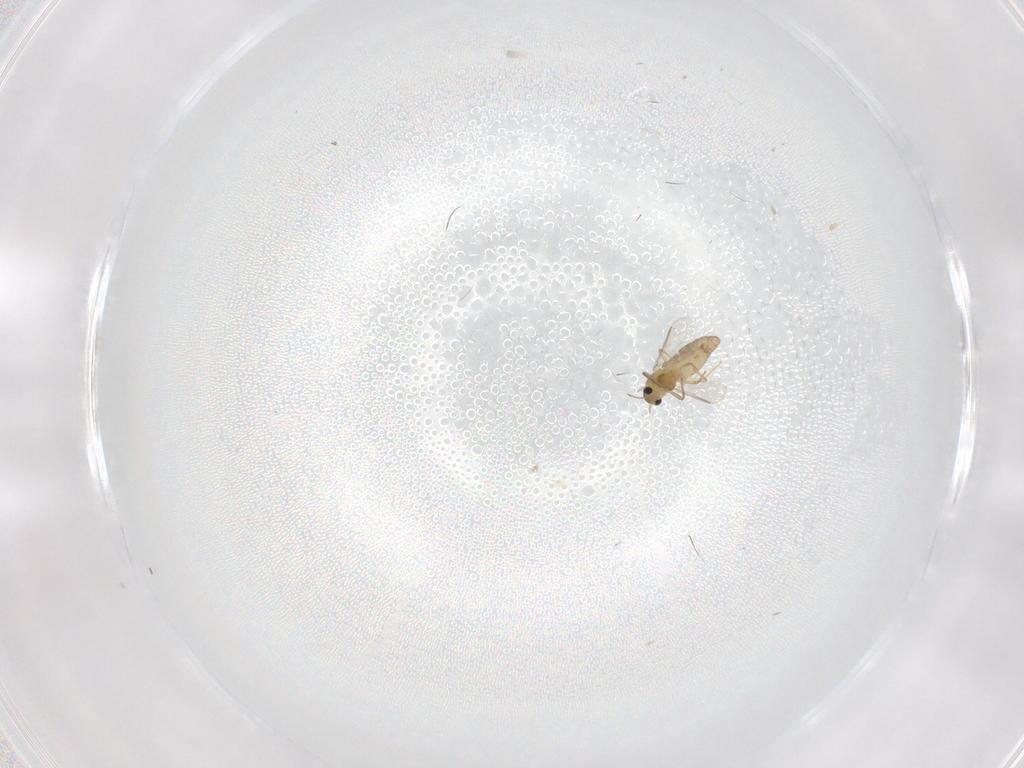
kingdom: Animalia
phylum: Arthropoda
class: Insecta
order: Diptera
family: Chironomidae
